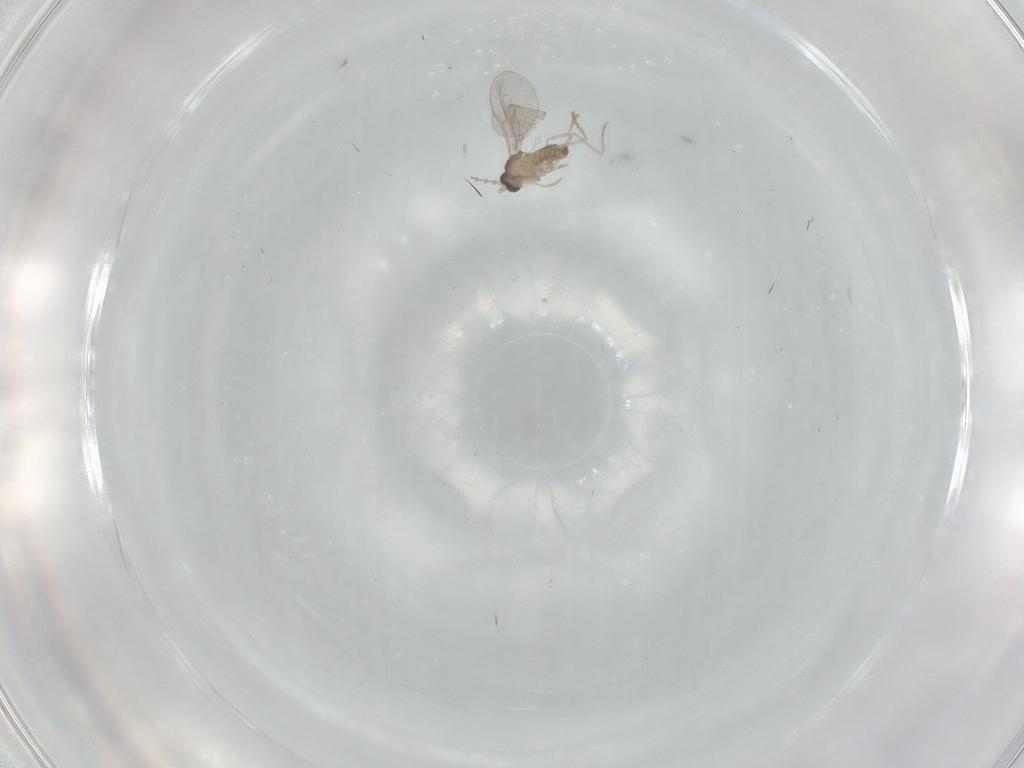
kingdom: Animalia
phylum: Arthropoda
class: Insecta
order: Diptera
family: Cecidomyiidae
